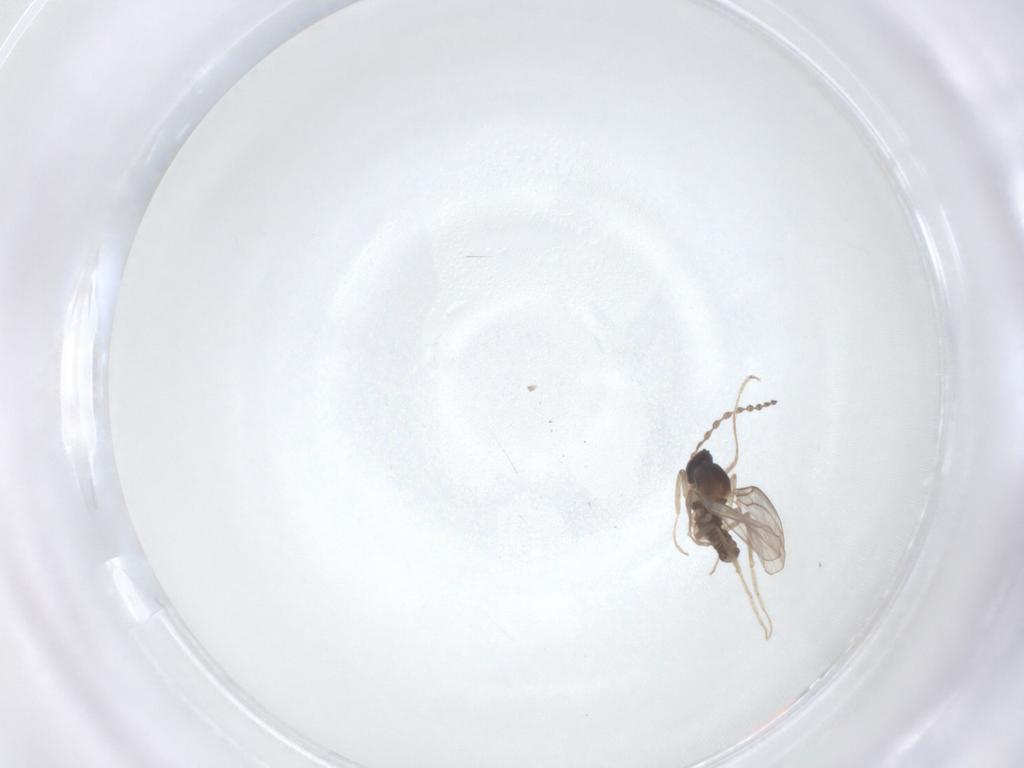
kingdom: Animalia
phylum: Arthropoda
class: Insecta
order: Diptera
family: Cecidomyiidae
